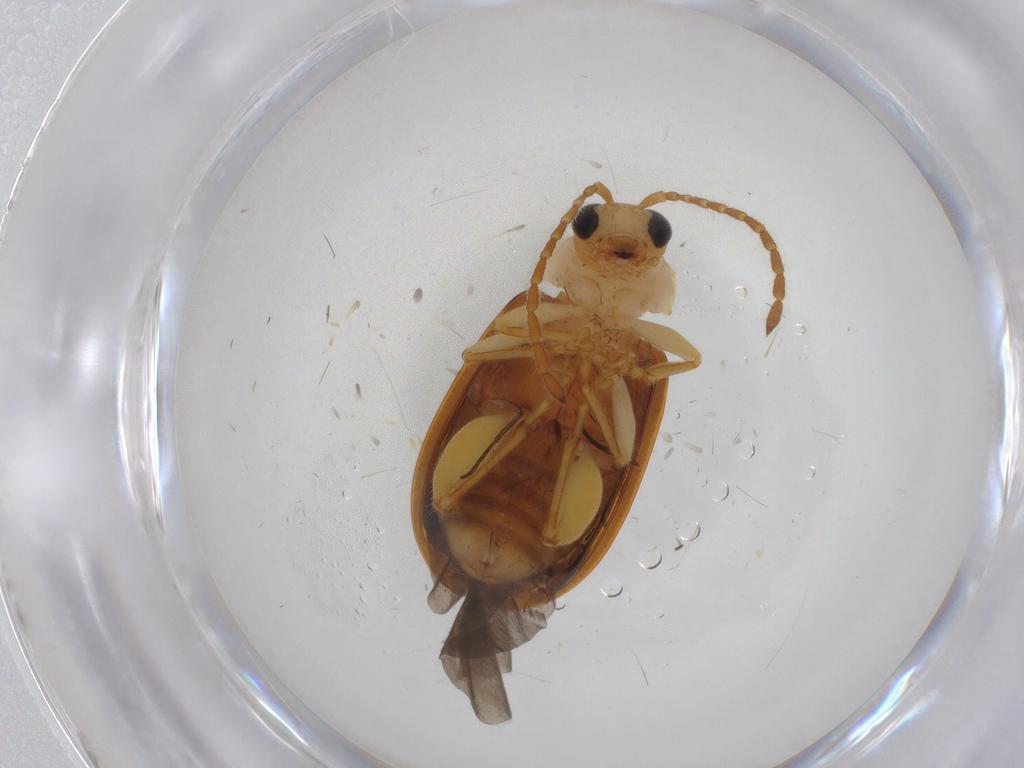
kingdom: Animalia
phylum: Arthropoda
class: Insecta
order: Coleoptera
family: Chrysomelidae
